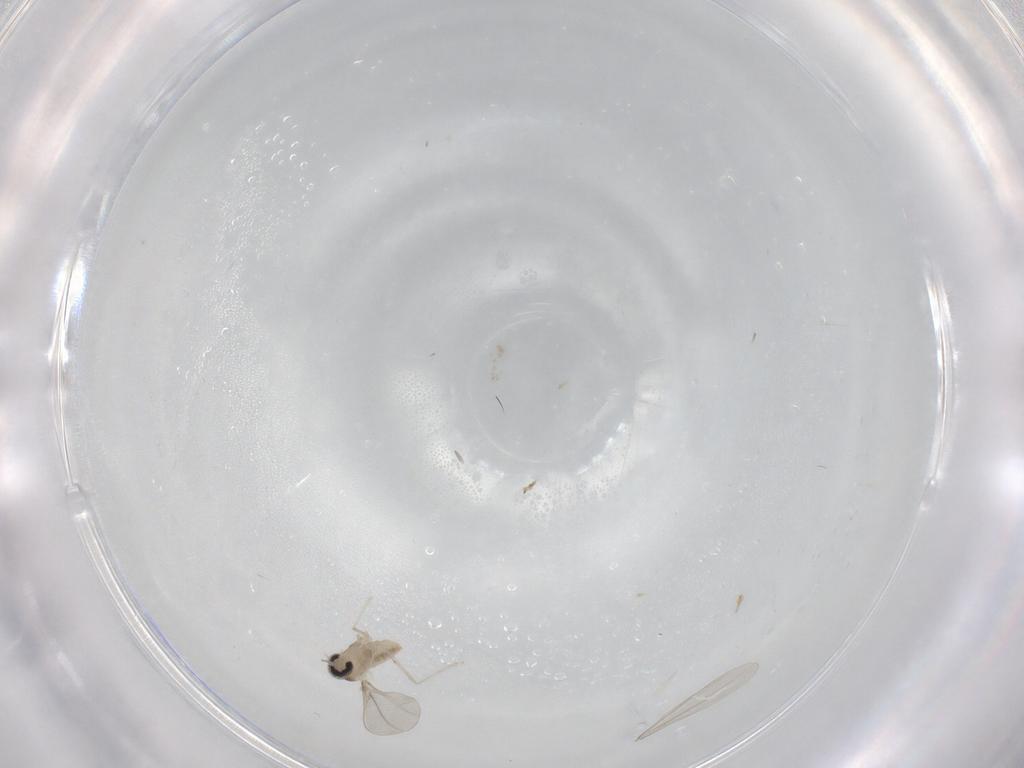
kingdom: Animalia
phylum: Arthropoda
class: Insecta
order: Diptera
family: Cecidomyiidae
